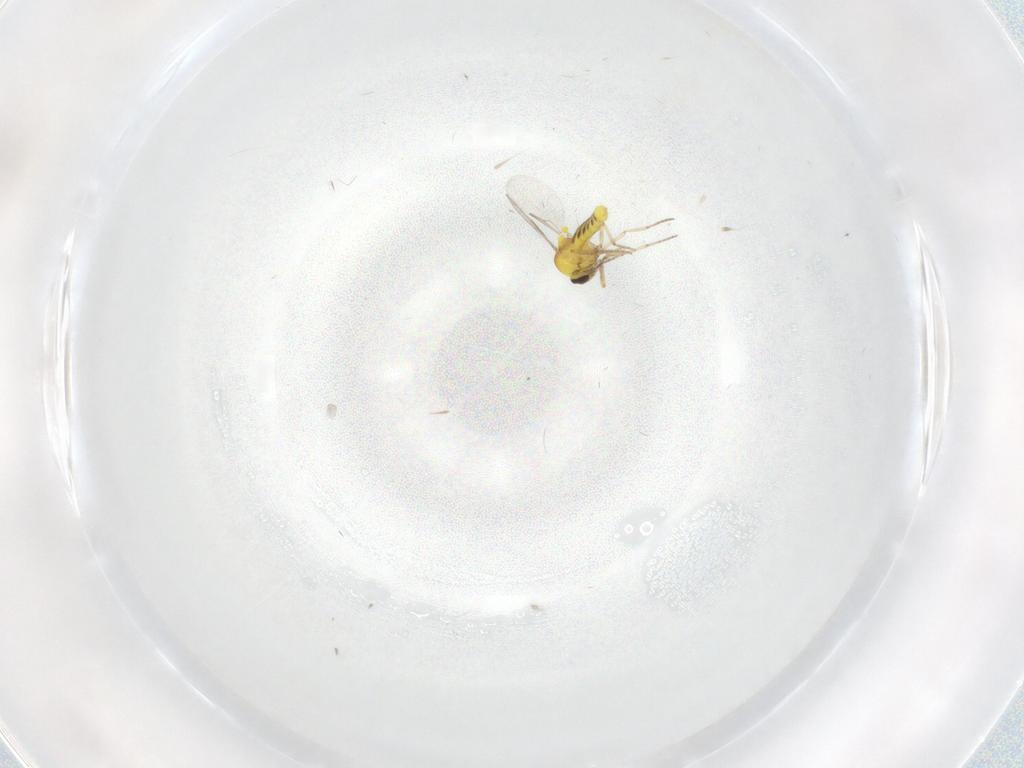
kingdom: Animalia
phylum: Arthropoda
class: Insecta
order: Diptera
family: Ceratopogonidae
